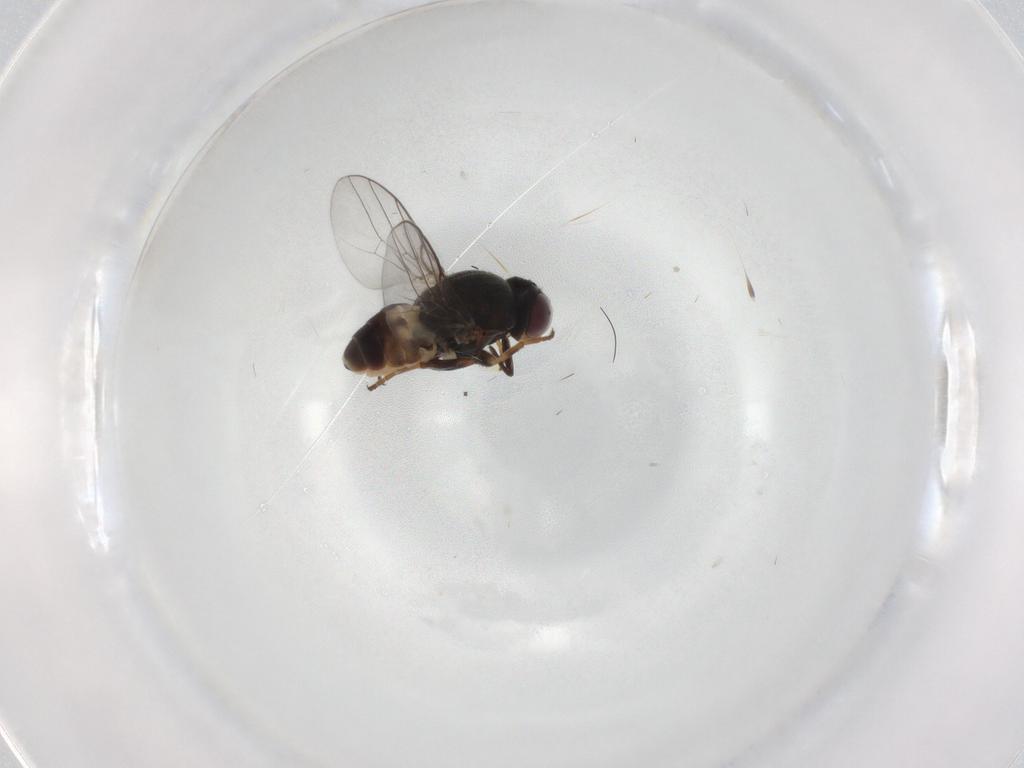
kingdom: Animalia
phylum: Arthropoda
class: Insecta
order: Diptera
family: Chloropidae
